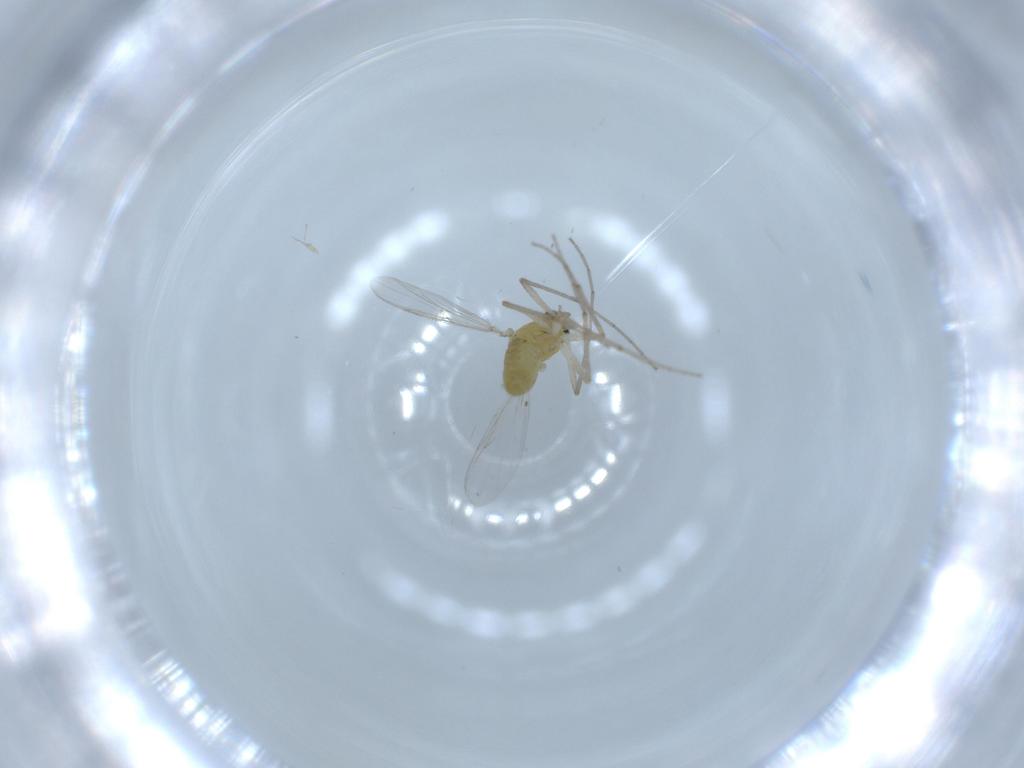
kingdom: Animalia
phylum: Arthropoda
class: Insecta
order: Diptera
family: Chironomidae
